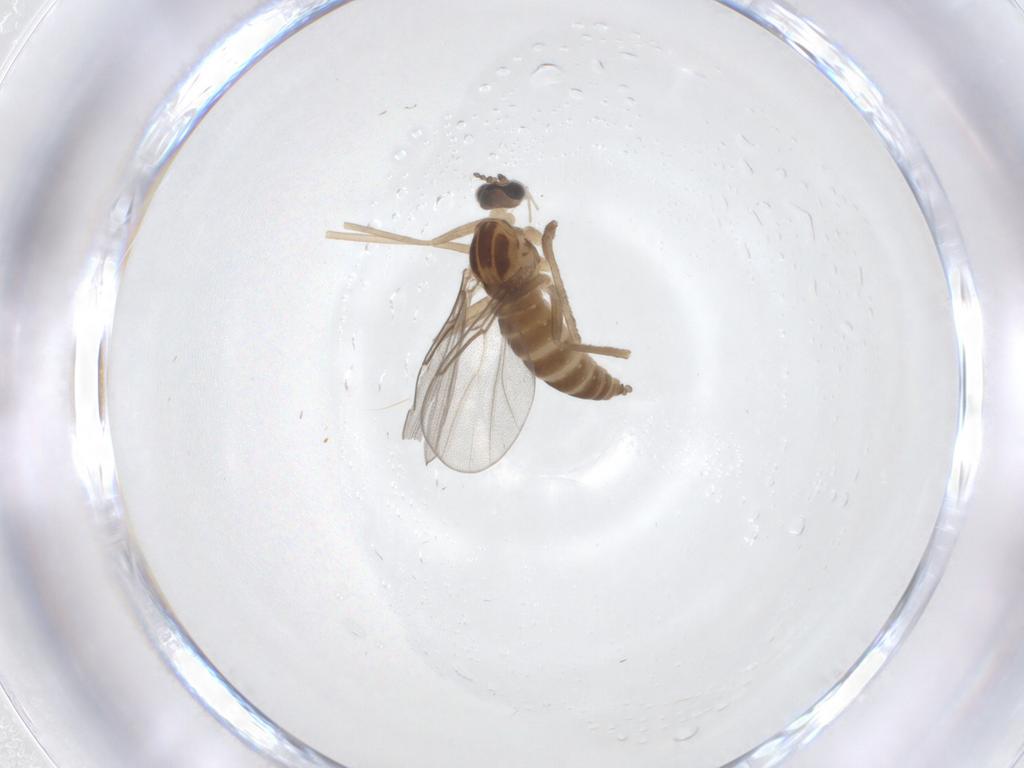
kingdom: Animalia
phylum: Arthropoda
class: Insecta
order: Diptera
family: Cecidomyiidae
